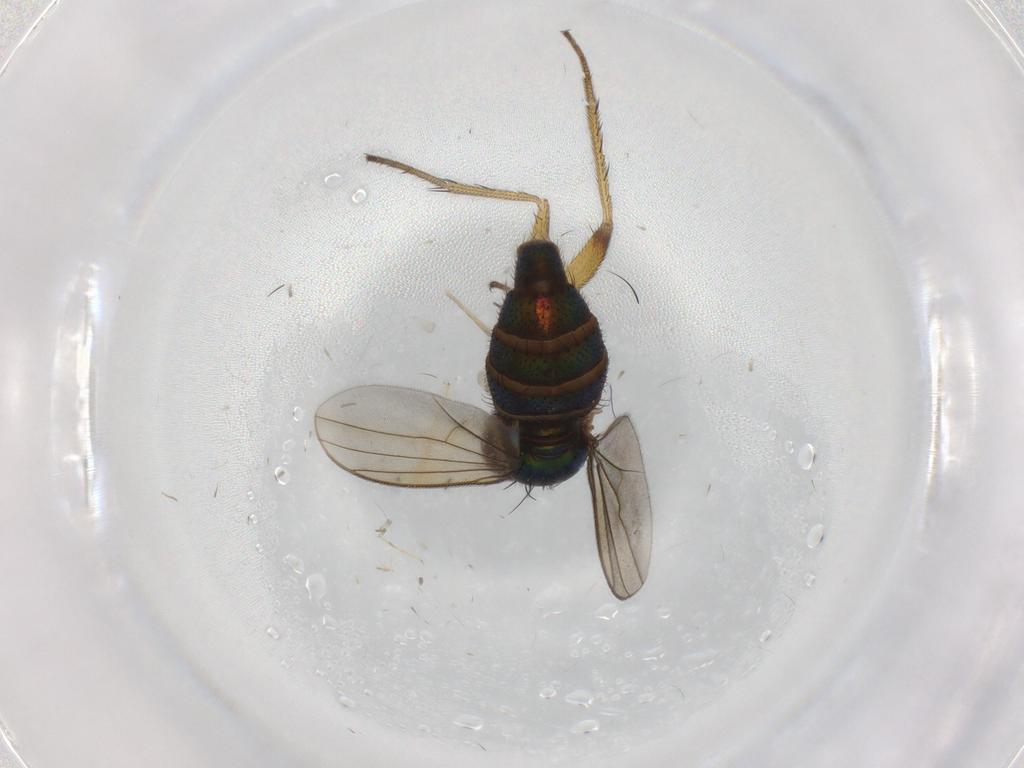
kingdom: Animalia
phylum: Arthropoda
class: Insecta
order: Diptera
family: Dolichopodidae
